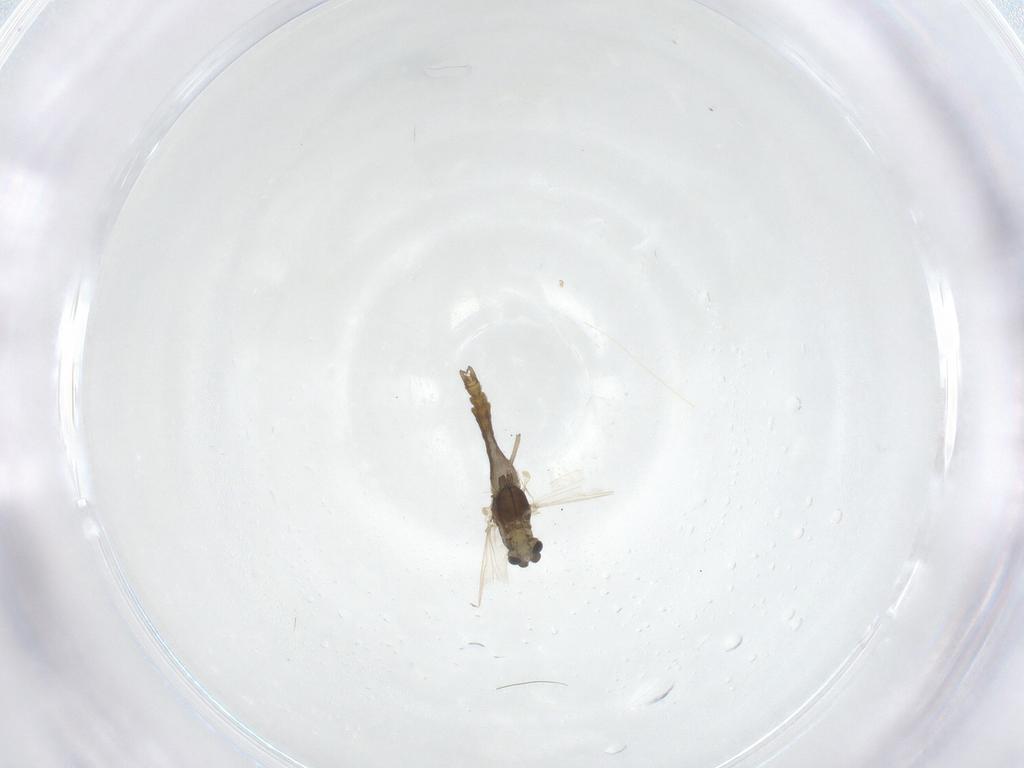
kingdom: Animalia
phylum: Arthropoda
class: Insecta
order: Diptera
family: Chironomidae
